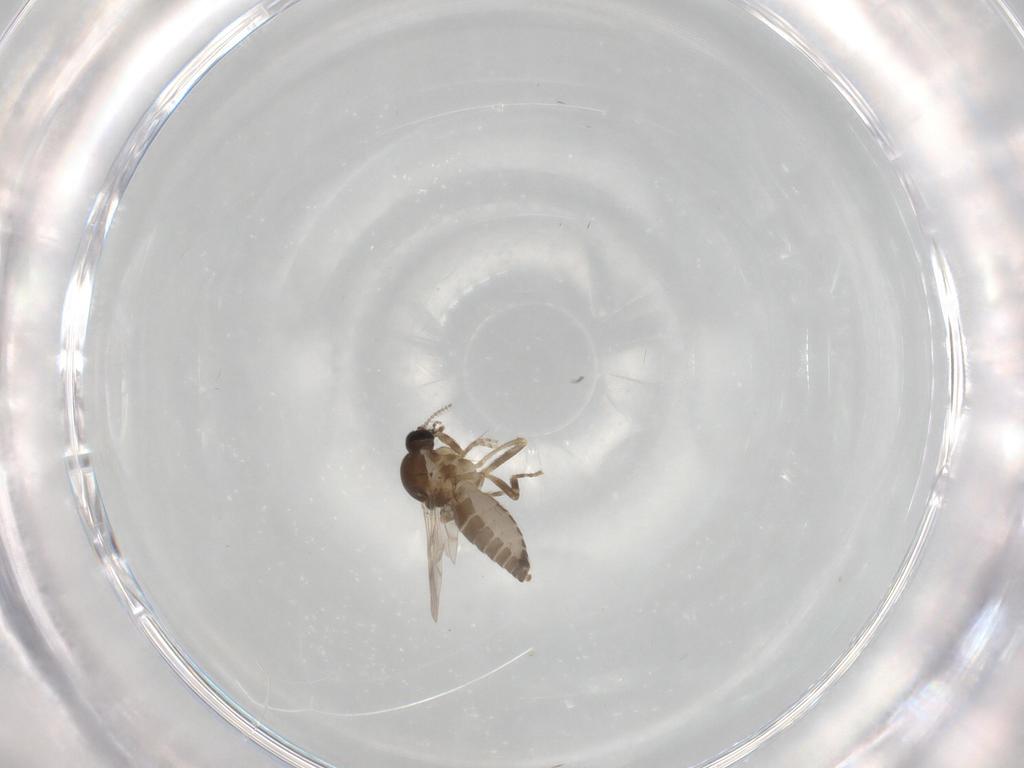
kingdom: Animalia
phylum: Arthropoda
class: Insecta
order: Diptera
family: Ceratopogonidae
